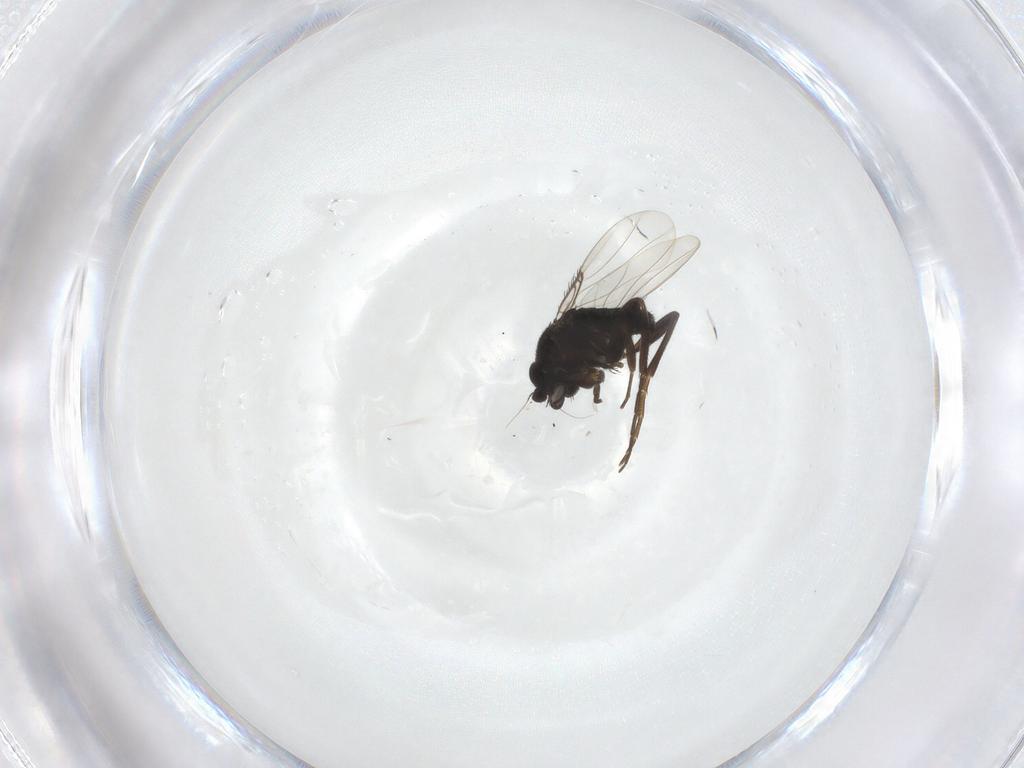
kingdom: Animalia
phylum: Arthropoda
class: Insecta
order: Diptera
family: Phoridae
